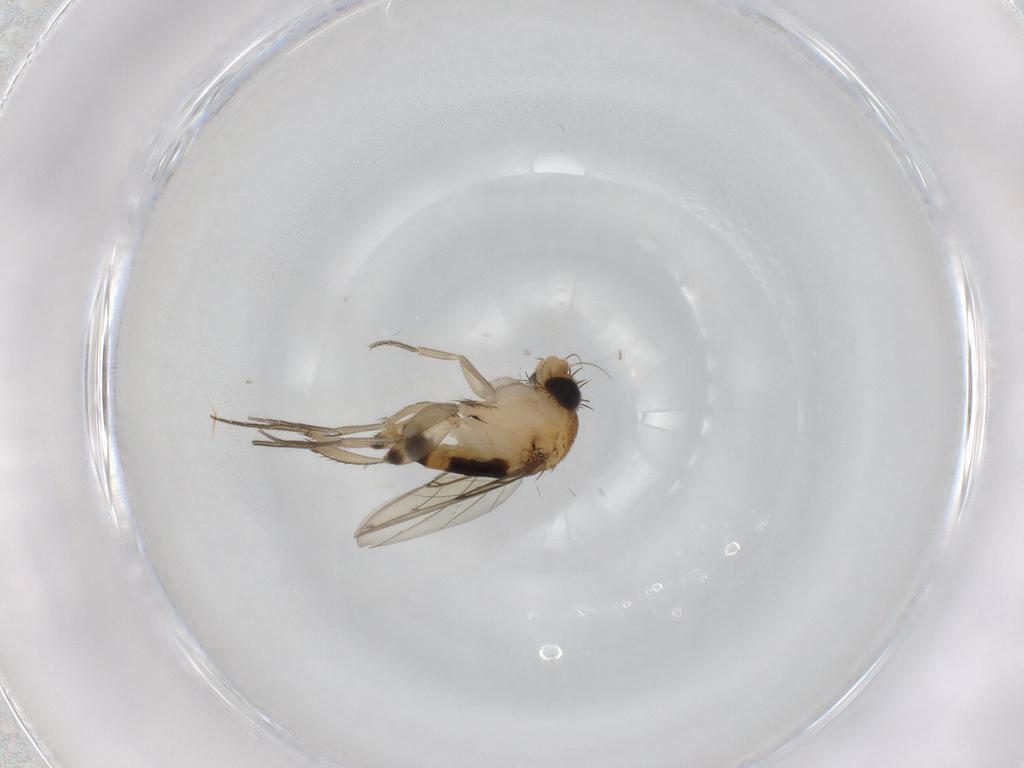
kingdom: Animalia
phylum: Arthropoda
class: Insecta
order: Diptera
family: Phoridae
